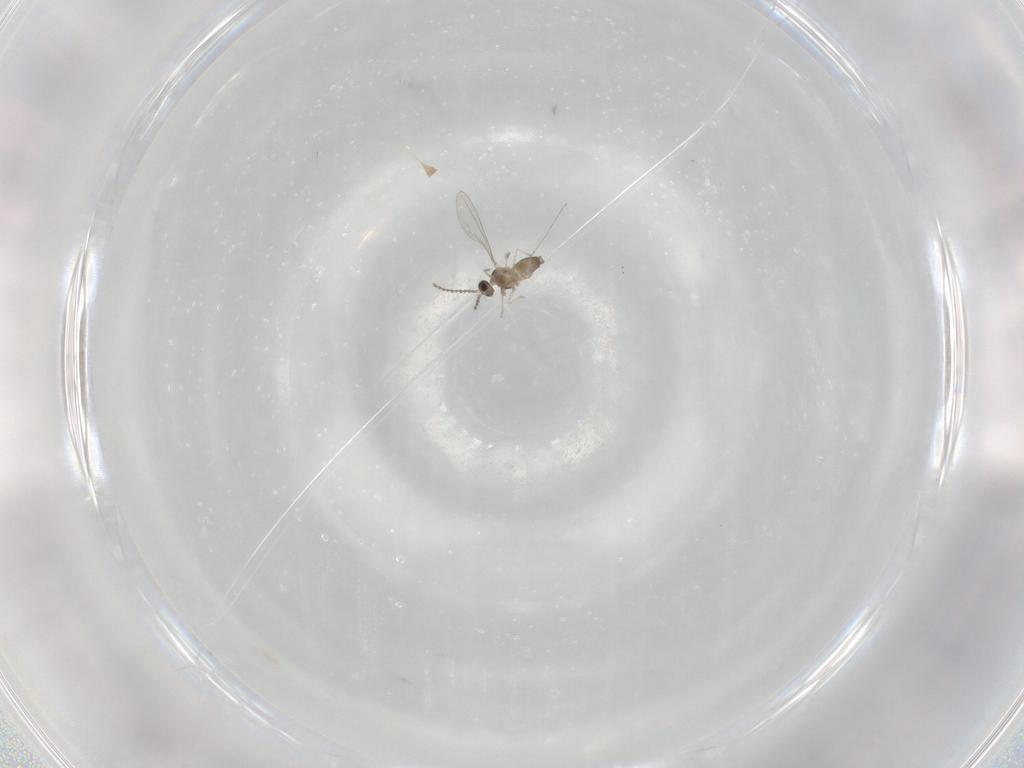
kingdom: Animalia
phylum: Arthropoda
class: Insecta
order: Diptera
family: Cecidomyiidae
